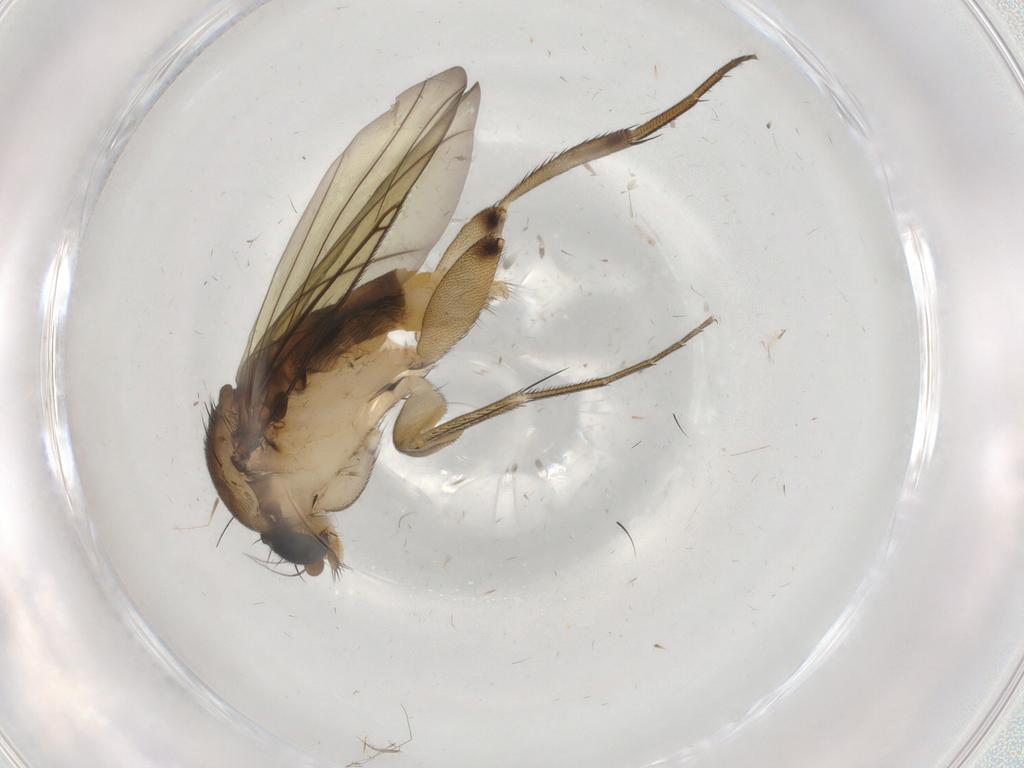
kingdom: Animalia
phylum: Arthropoda
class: Insecta
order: Diptera
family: Phoridae
